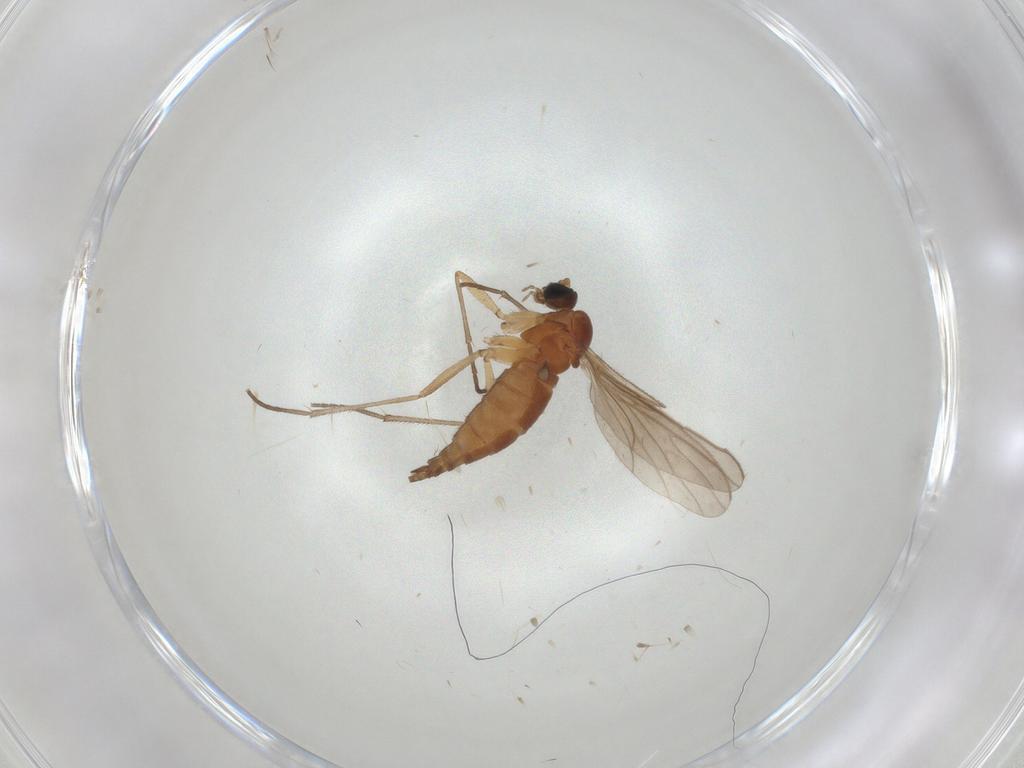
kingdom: Animalia
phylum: Arthropoda
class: Insecta
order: Diptera
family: Sciaridae
